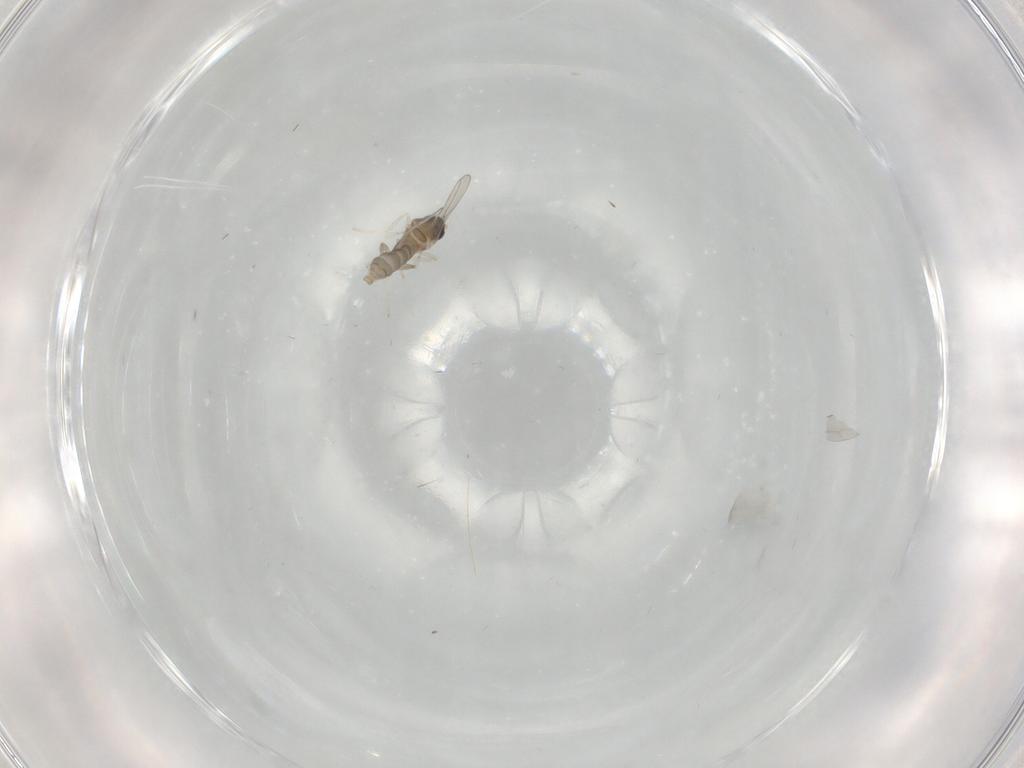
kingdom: Animalia
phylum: Arthropoda
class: Insecta
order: Diptera
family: Cecidomyiidae
